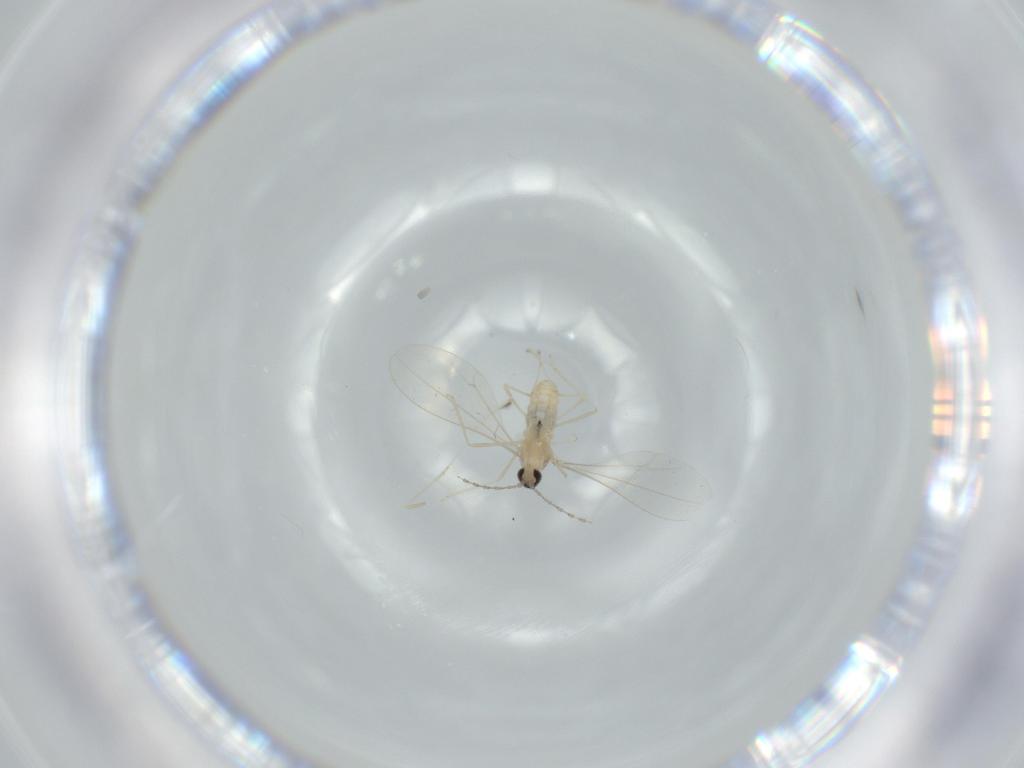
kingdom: Animalia
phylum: Arthropoda
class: Insecta
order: Diptera
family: Cecidomyiidae
